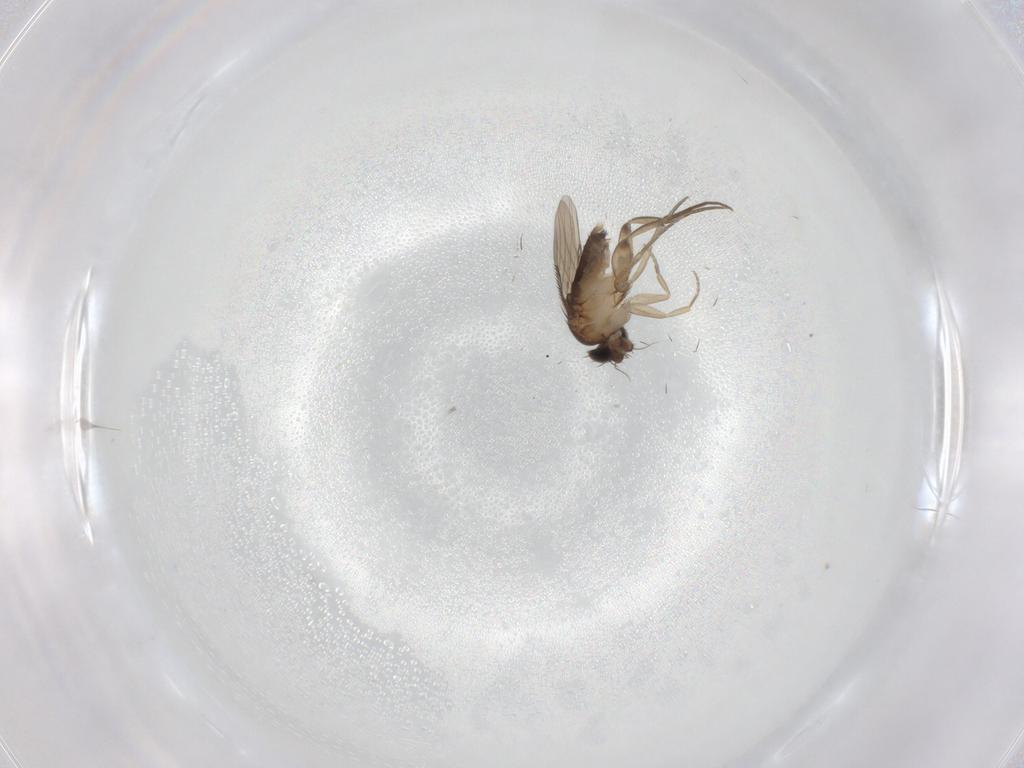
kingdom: Animalia
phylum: Arthropoda
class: Insecta
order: Diptera
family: Phoridae
